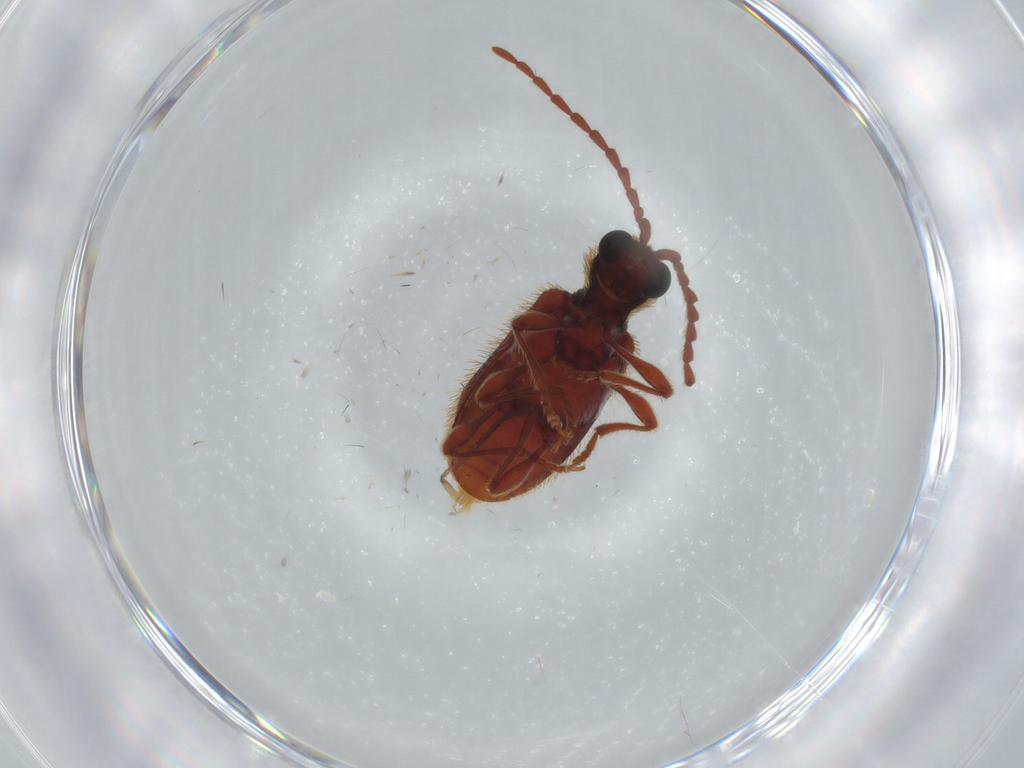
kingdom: Animalia
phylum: Arthropoda
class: Insecta
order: Coleoptera
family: Ptinidae
